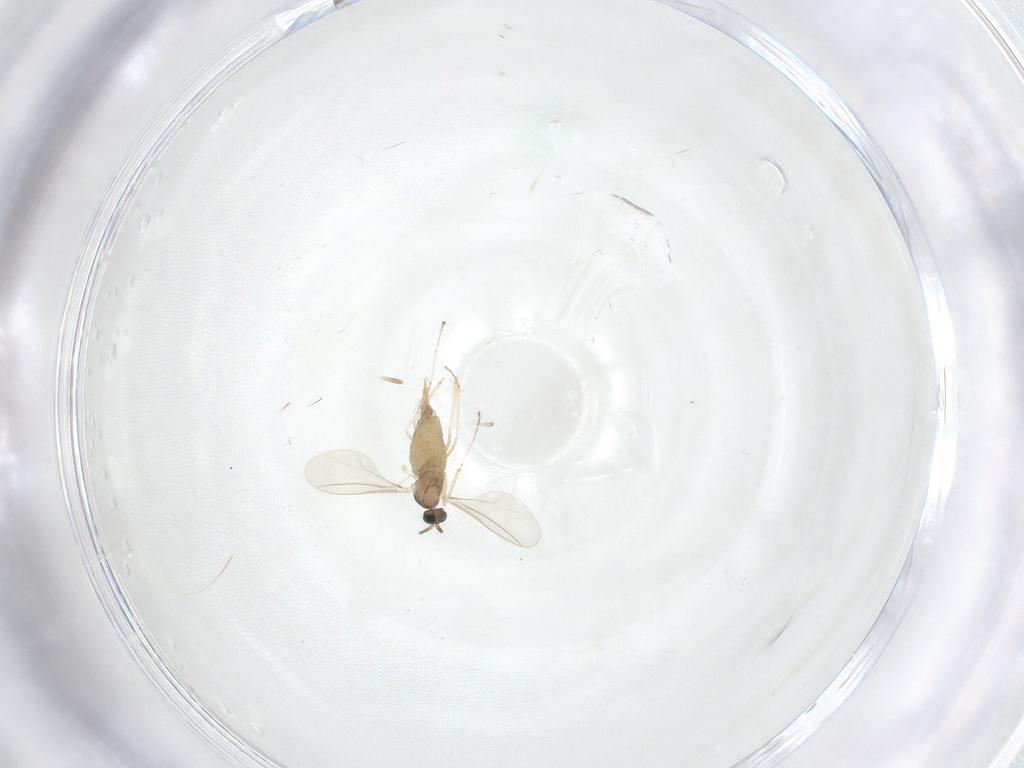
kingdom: Animalia
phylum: Arthropoda
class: Insecta
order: Diptera
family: Cecidomyiidae
